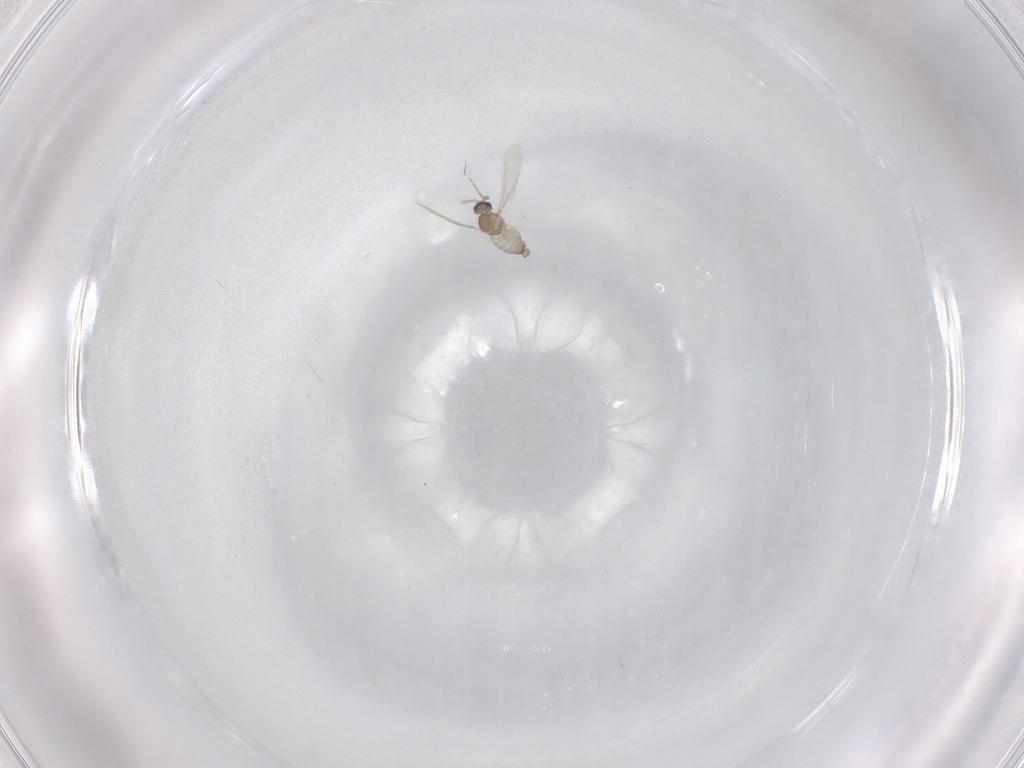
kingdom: Animalia
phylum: Arthropoda
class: Insecta
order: Diptera
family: Cecidomyiidae
